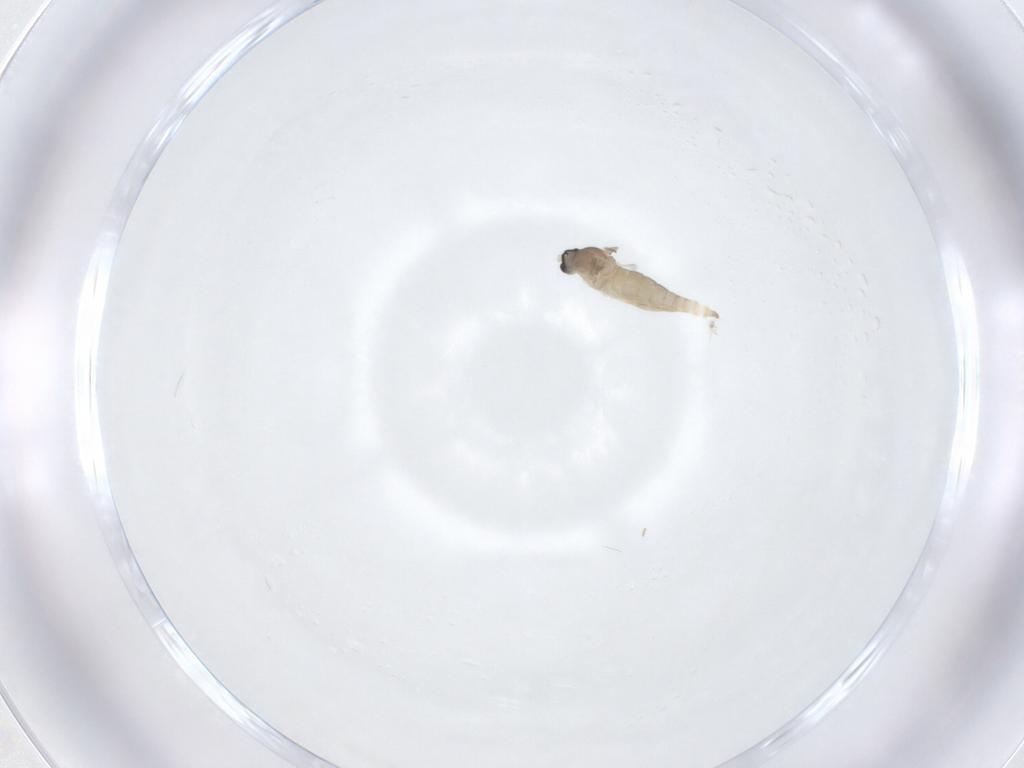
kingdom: Animalia
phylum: Arthropoda
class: Insecta
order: Diptera
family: Cecidomyiidae
